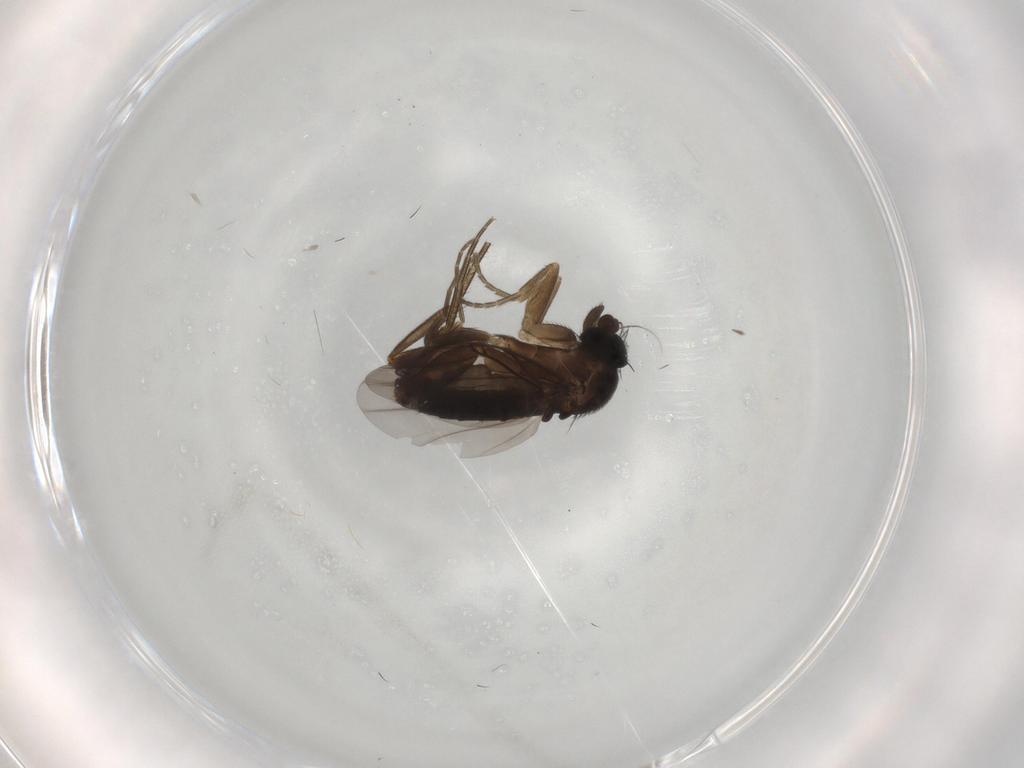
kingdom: Animalia
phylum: Arthropoda
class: Insecta
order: Diptera
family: Phoridae
